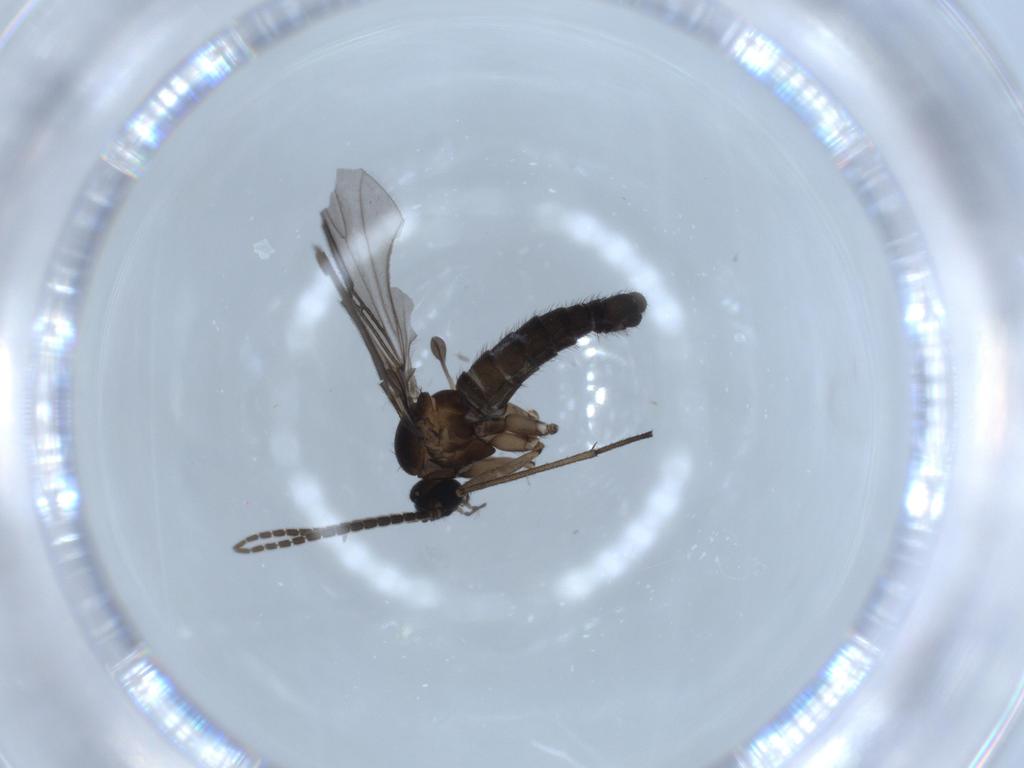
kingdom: Animalia
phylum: Arthropoda
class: Insecta
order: Diptera
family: Sciaridae
